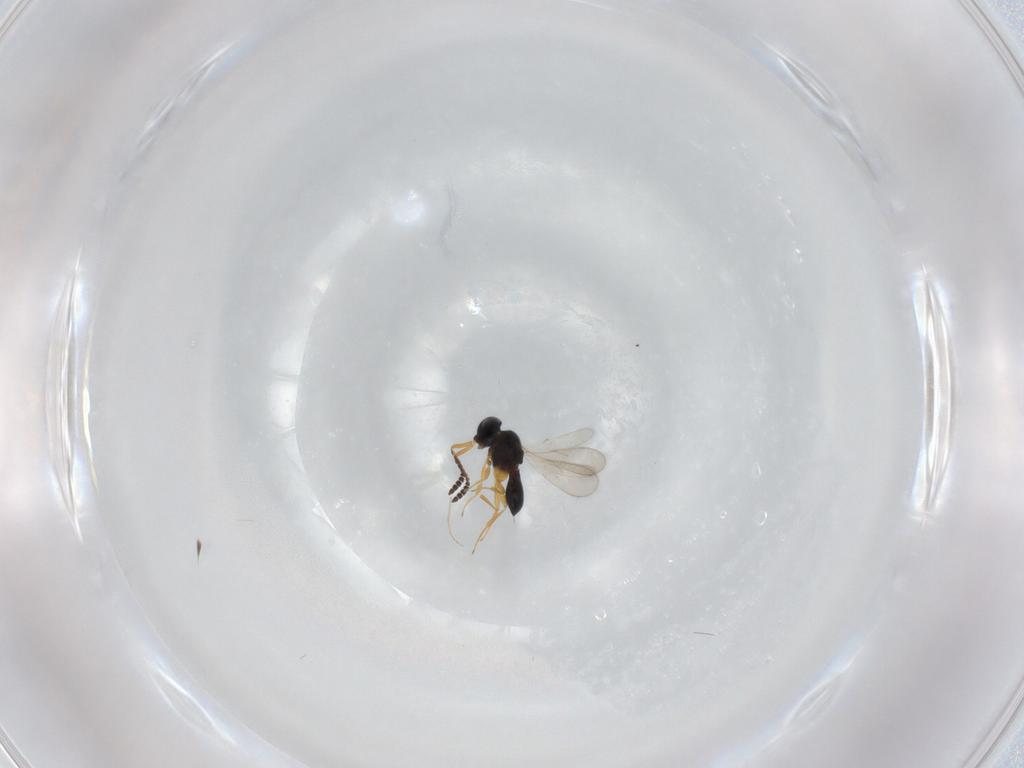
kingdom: Animalia
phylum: Arthropoda
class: Insecta
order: Hymenoptera
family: Scelionidae
